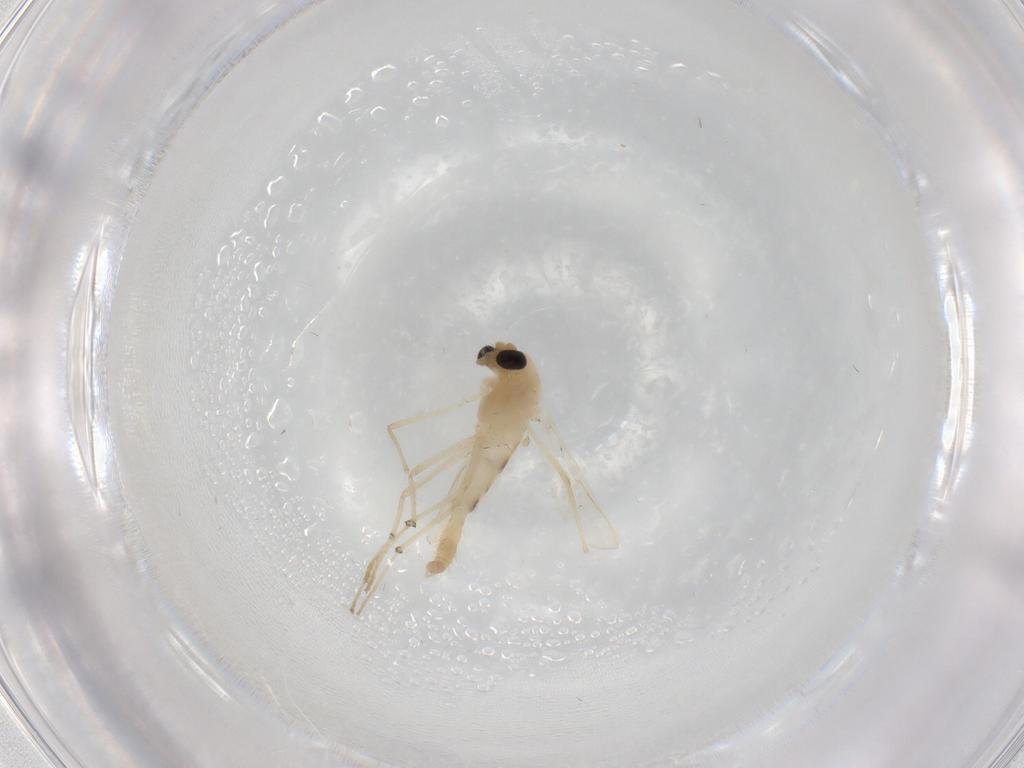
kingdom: Animalia
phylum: Arthropoda
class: Insecta
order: Diptera
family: Chironomidae
